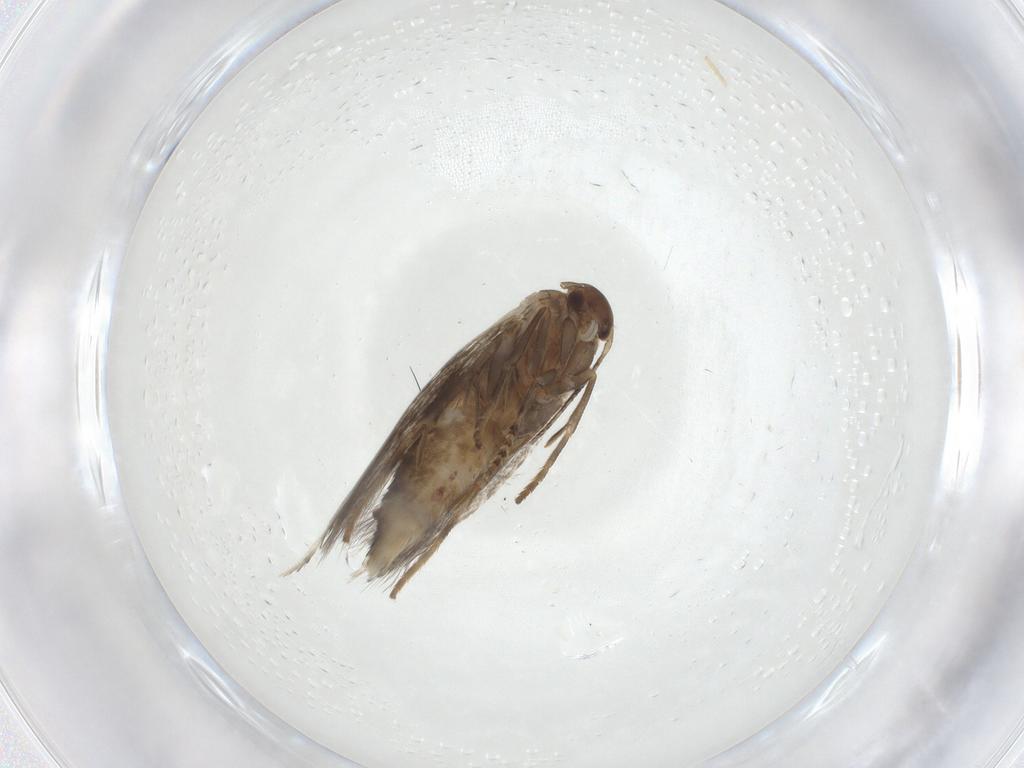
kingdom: Animalia
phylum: Arthropoda
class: Insecta
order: Lepidoptera
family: Elachistidae
